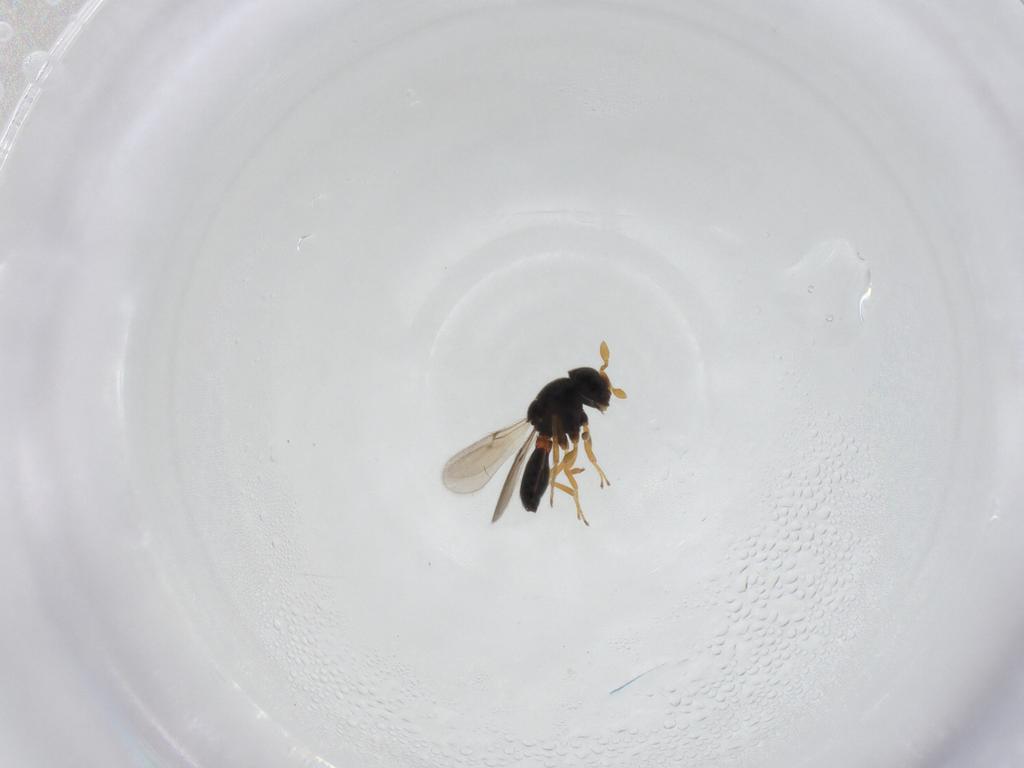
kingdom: Animalia
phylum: Arthropoda
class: Insecta
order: Hymenoptera
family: Scelionidae
